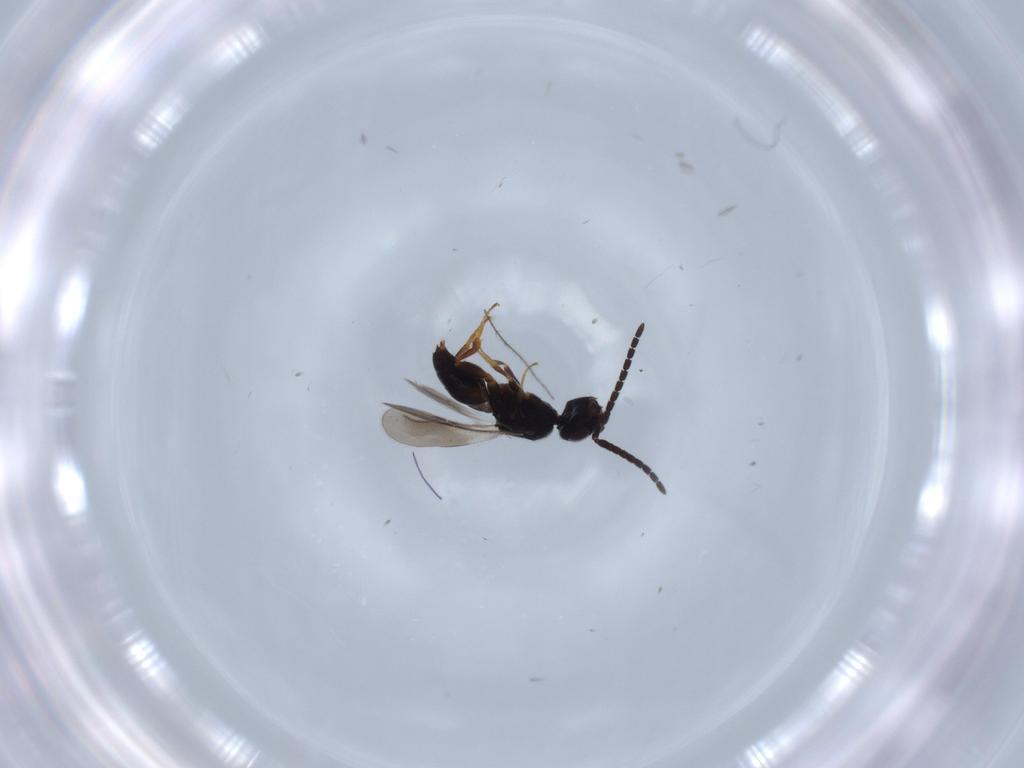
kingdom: Animalia
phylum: Arthropoda
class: Insecta
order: Hymenoptera
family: Ceraphronidae
